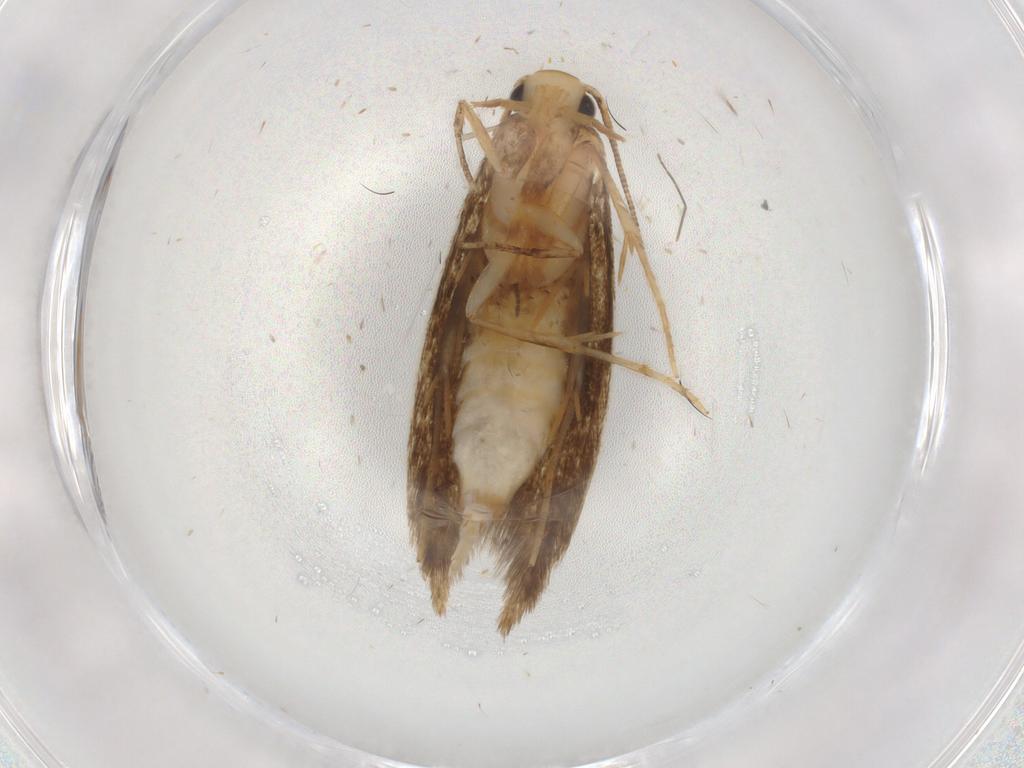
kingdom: Animalia
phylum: Arthropoda
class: Insecta
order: Lepidoptera
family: Tineidae
